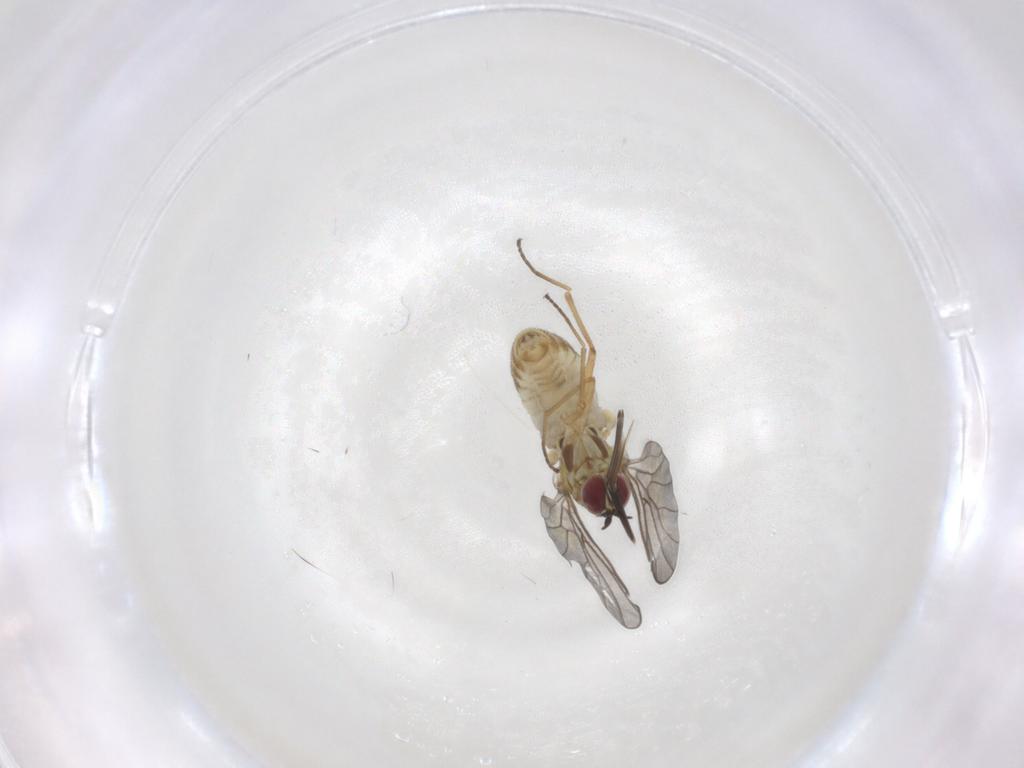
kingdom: Animalia
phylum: Arthropoda
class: Insecta
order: Diptera
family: Bombyliidae
